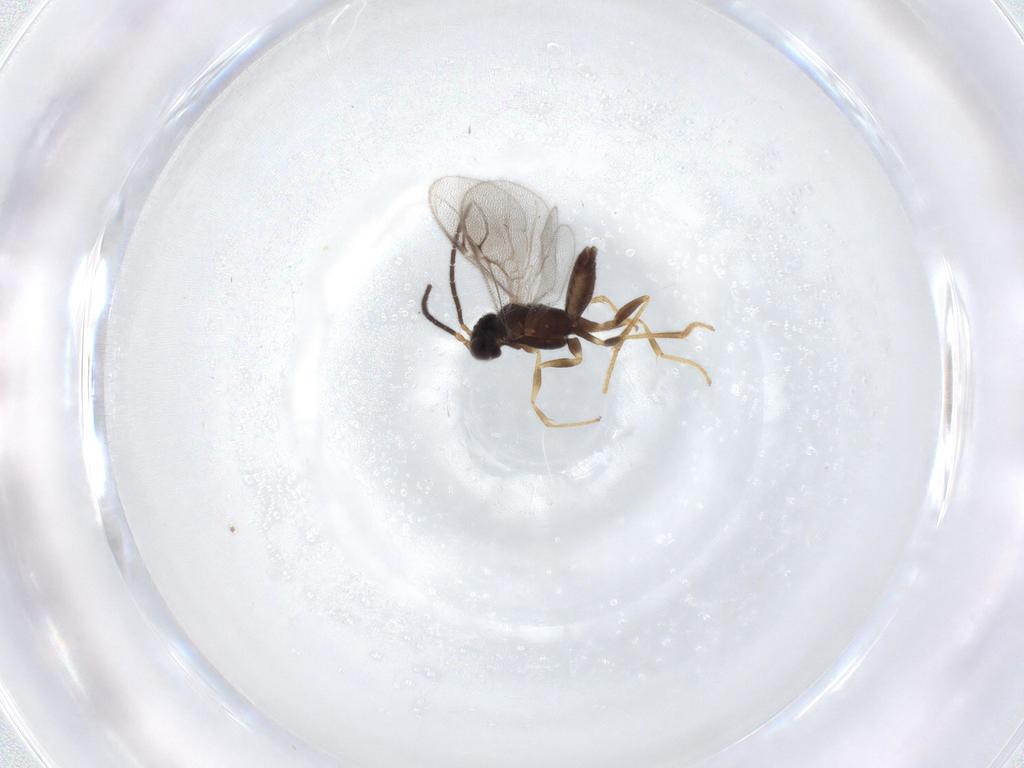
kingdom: Animalia
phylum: Arthropoda
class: Insecta
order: Hymenoptera
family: Dryinidae
